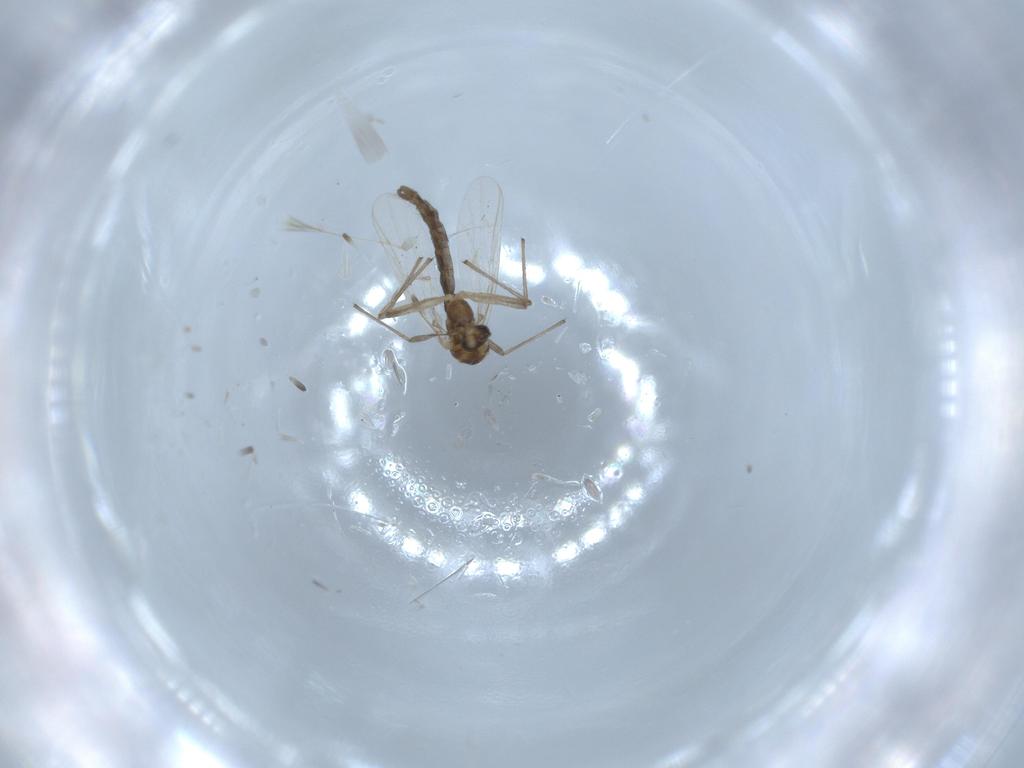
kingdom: Animalia
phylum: Arthropoda
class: Insecta
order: Diptera
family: Chironomidae
